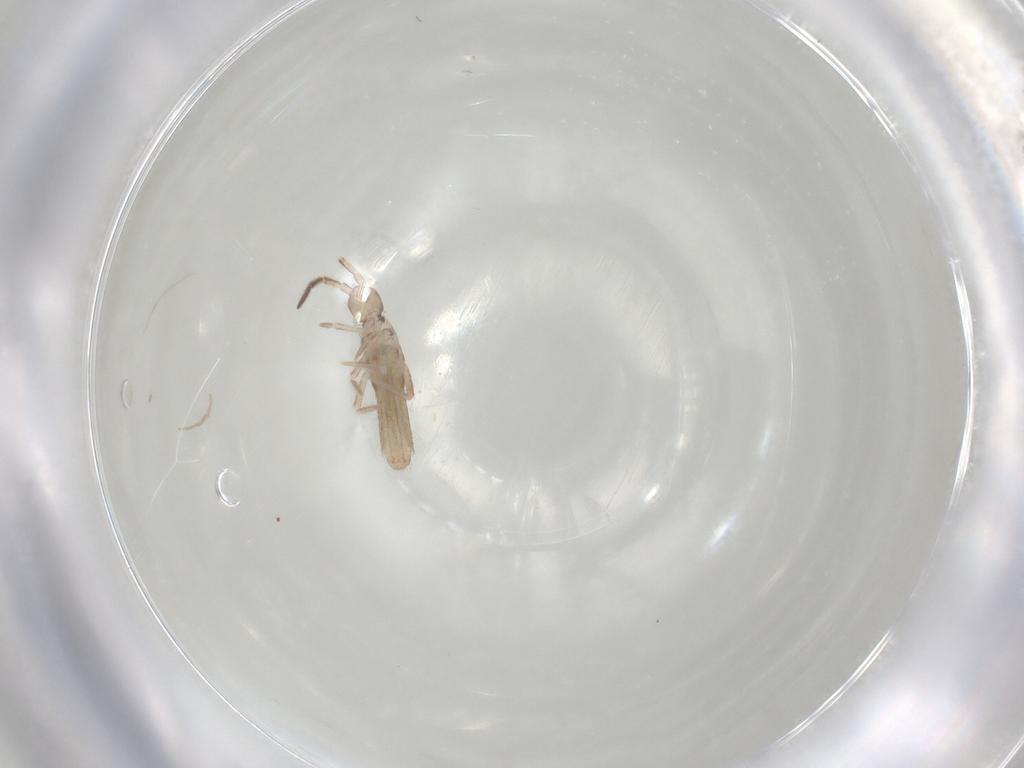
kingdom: Animalia
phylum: Arthropoda
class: Collembola
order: Entomobryomorpha
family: Entomobryidae
